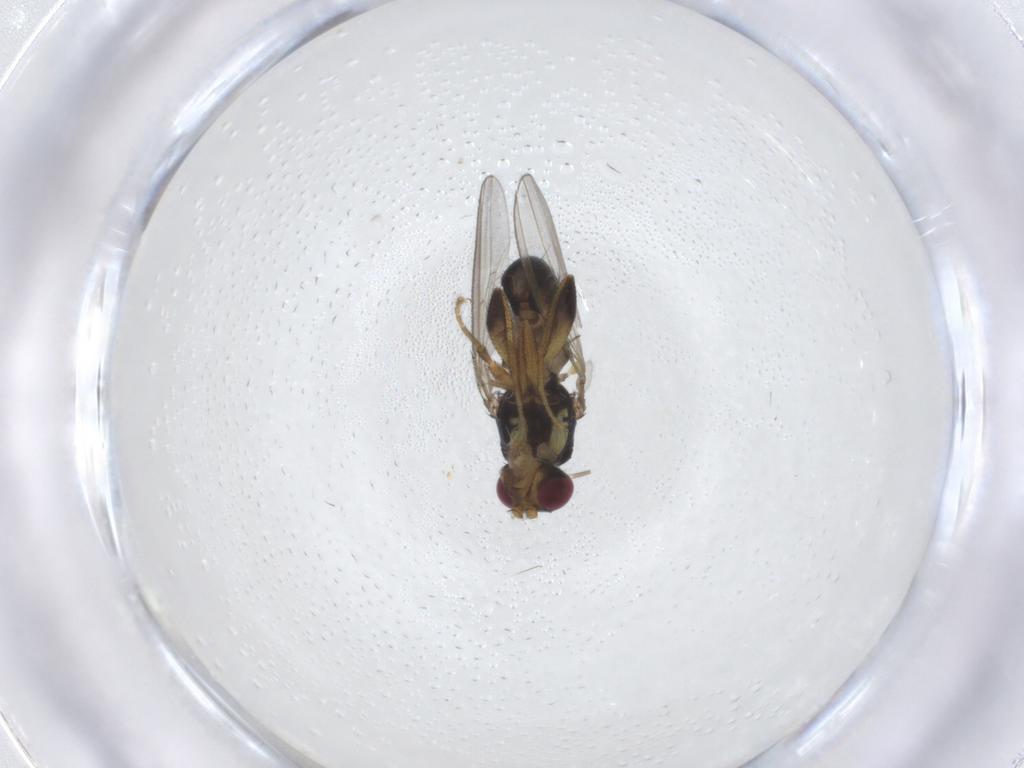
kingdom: Animalia
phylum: Arthropoda
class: Insecta
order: Diptera
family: Pseudopomyzidae
